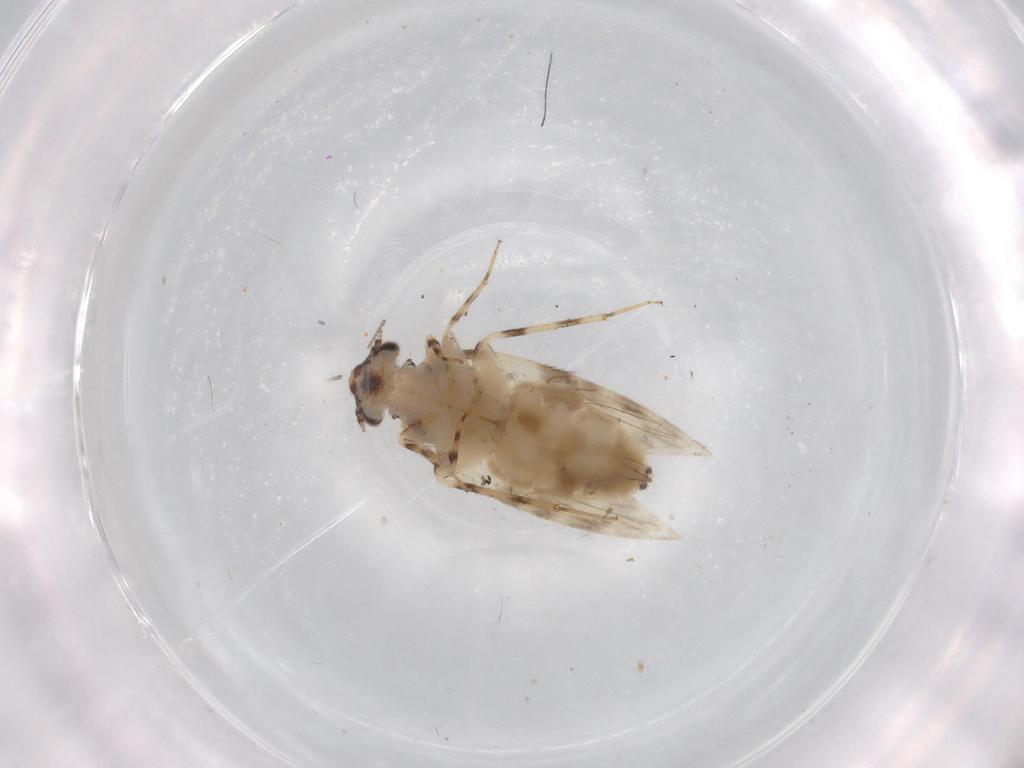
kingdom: Animalia
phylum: Arthropoda
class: Insecta
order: Psocodea
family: Lepidopsocidae
